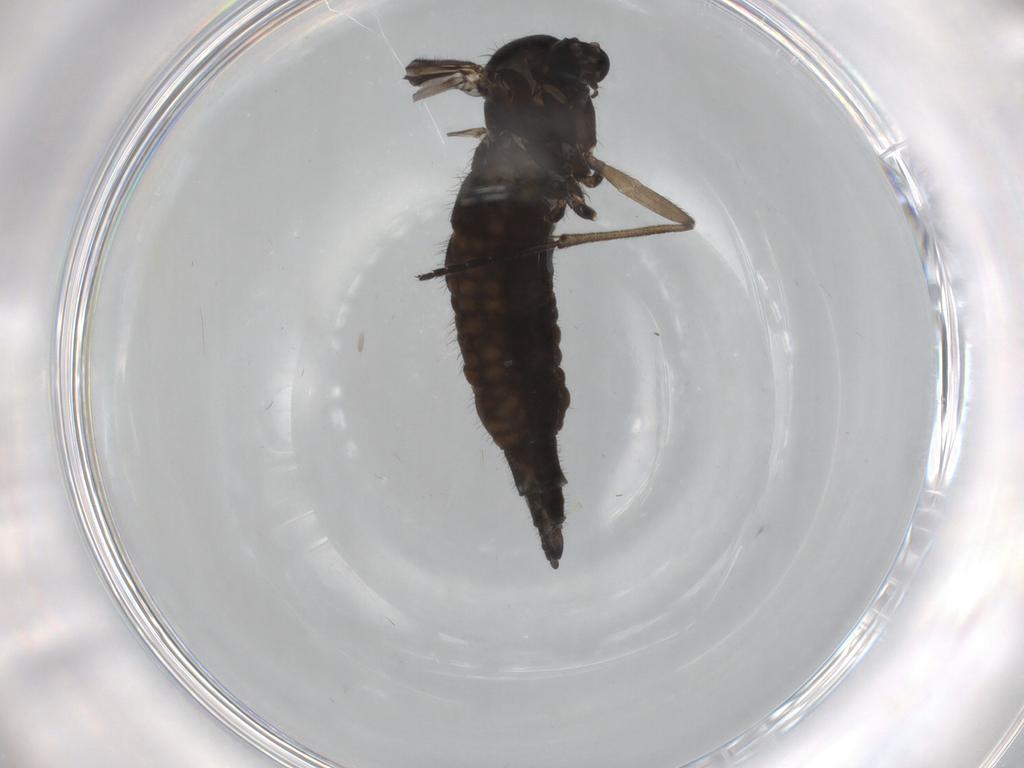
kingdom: Animalia
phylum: Arthropoda
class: Insecta
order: Diptera
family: Sciaridae
